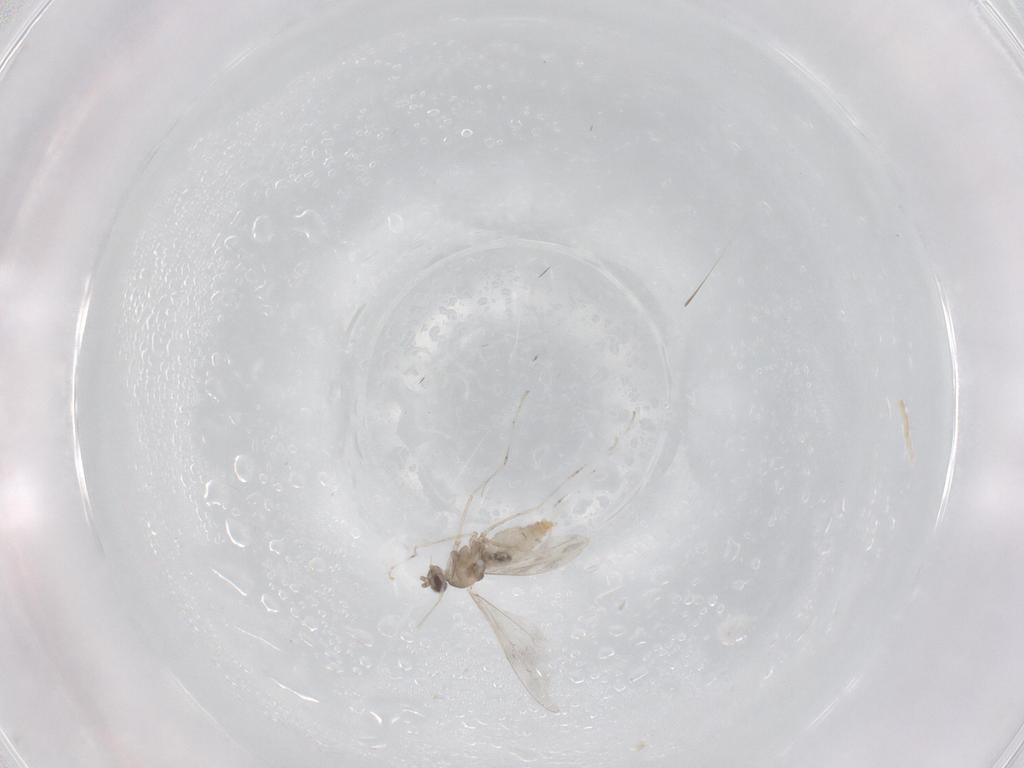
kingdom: Animalia
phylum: Arthropoda
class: Insecta
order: Diptera
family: Cecidomyiidae
